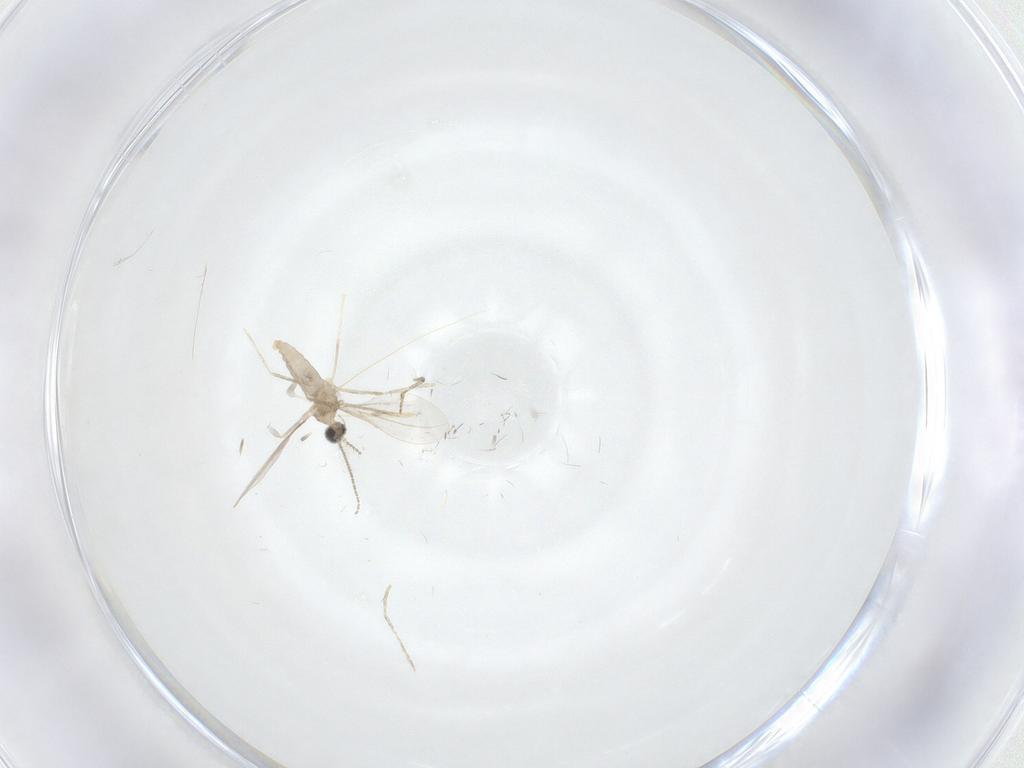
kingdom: Animalia
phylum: Arthropoda
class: Insecta
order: Diptera
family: Cecidomyiidae
